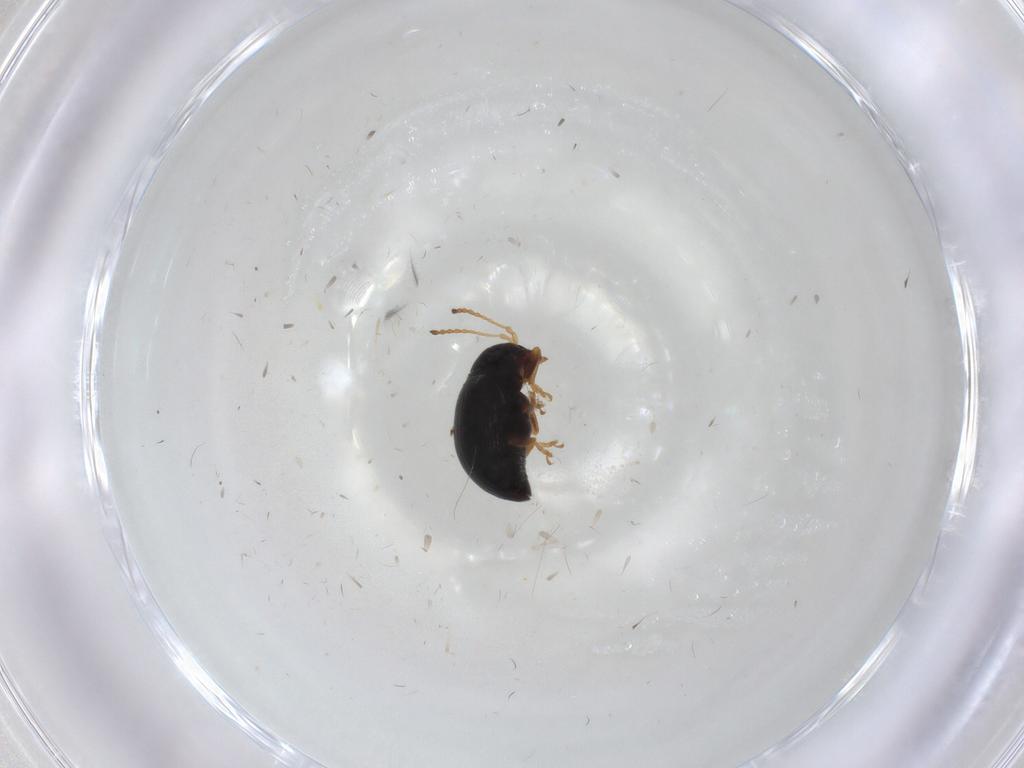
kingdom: Animalia
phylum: Arthropoda
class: Insecta
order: Coleoptera
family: Chrysomelidae
